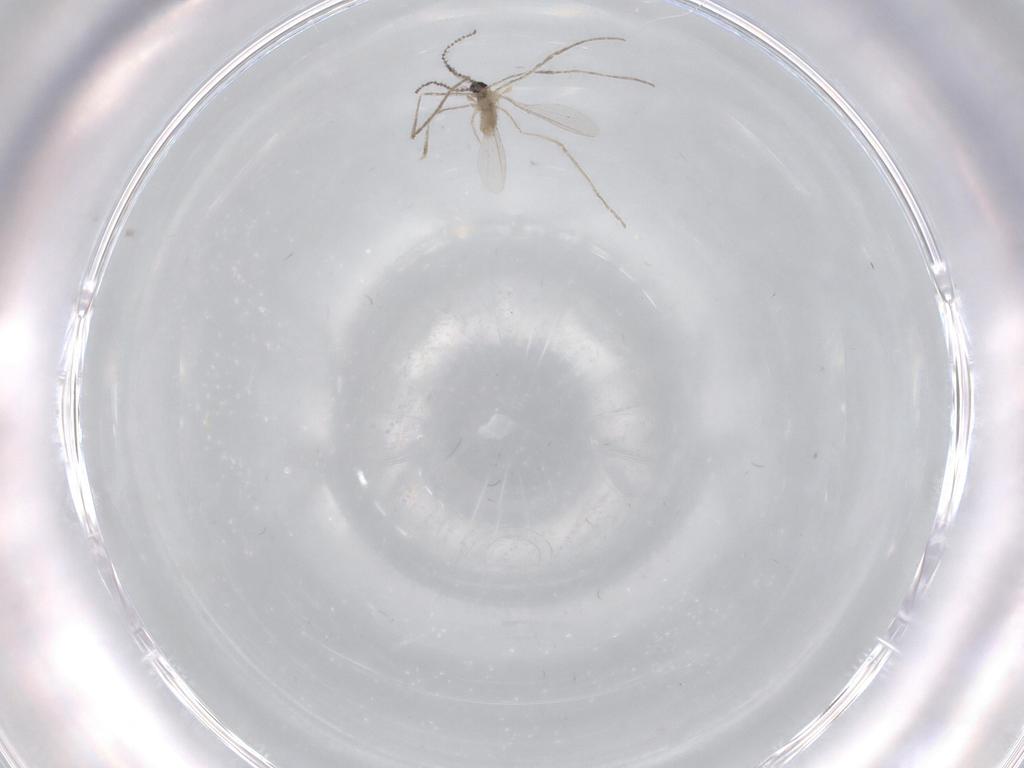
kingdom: Animalia
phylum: Arthropoda
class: Insecta
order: Diptera
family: Cecidomyiidae
